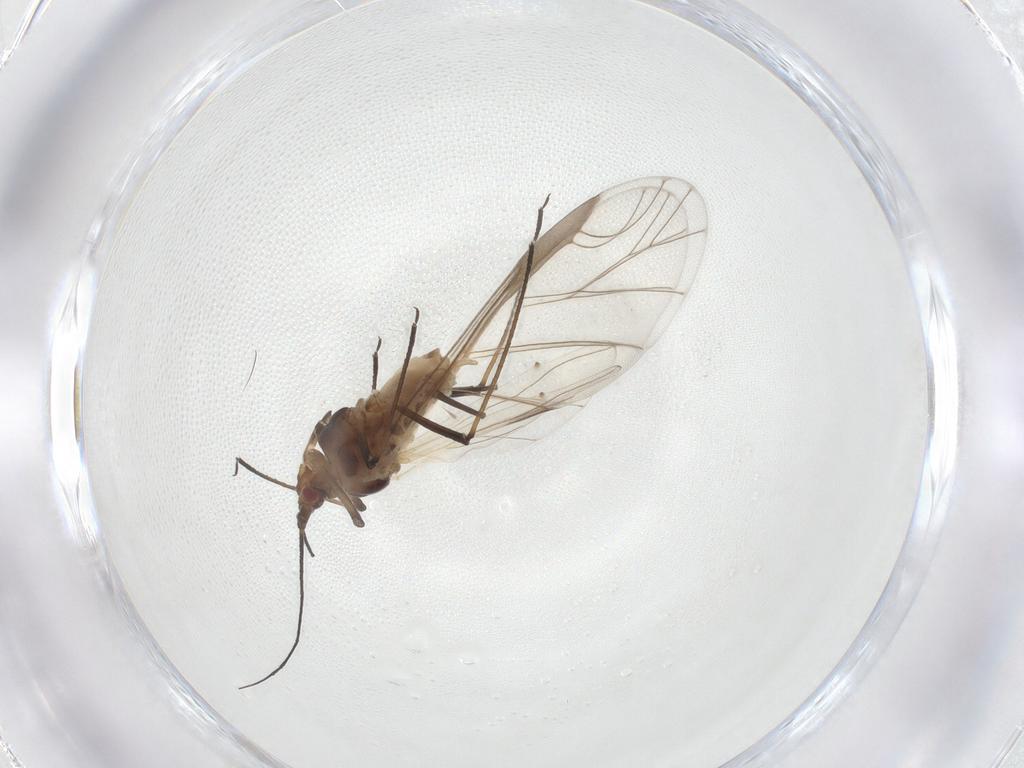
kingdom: Animalia
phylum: Arthropoda
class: Insecta
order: Hemiptera
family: Aphididae
